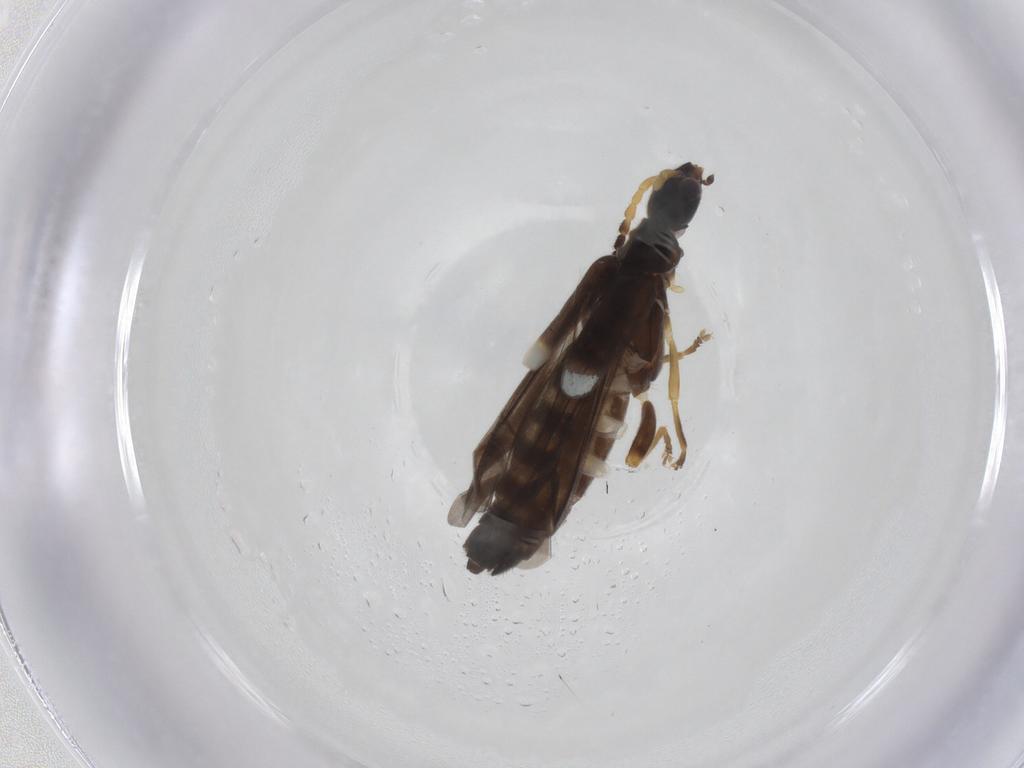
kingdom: Animalia
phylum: Arthropoda
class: Insecta
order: Coleoptera
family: Cantharidae
